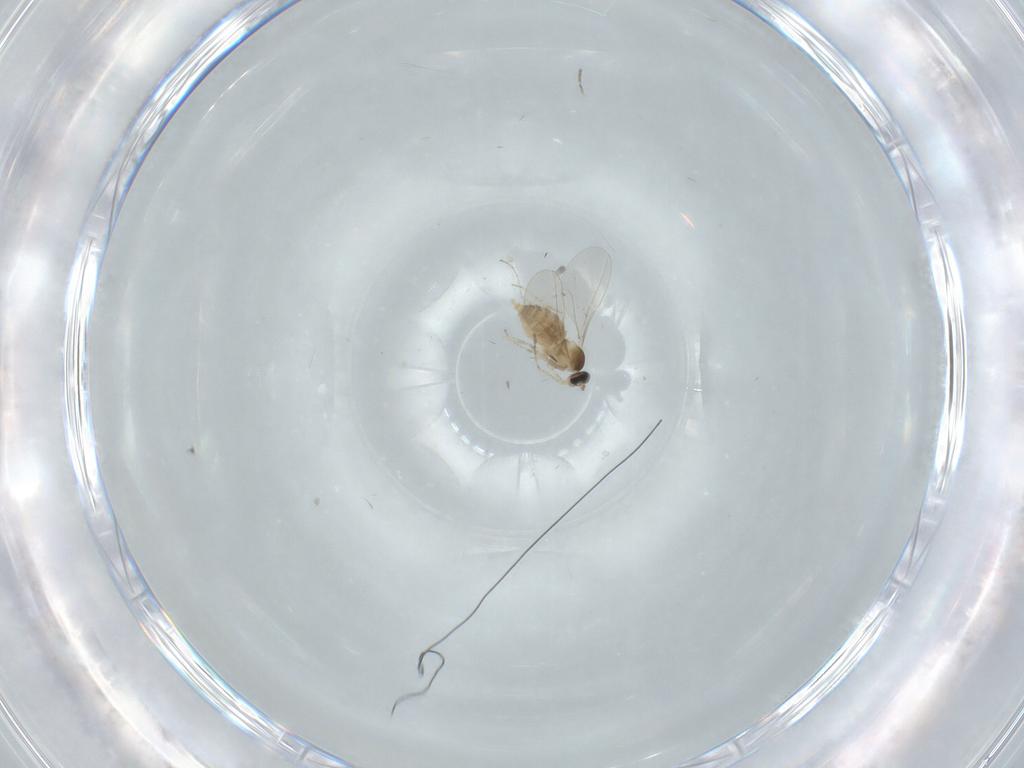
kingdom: Animalia
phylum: Arthropoda
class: Insecta
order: Diptera
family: Cecidomyiidae
